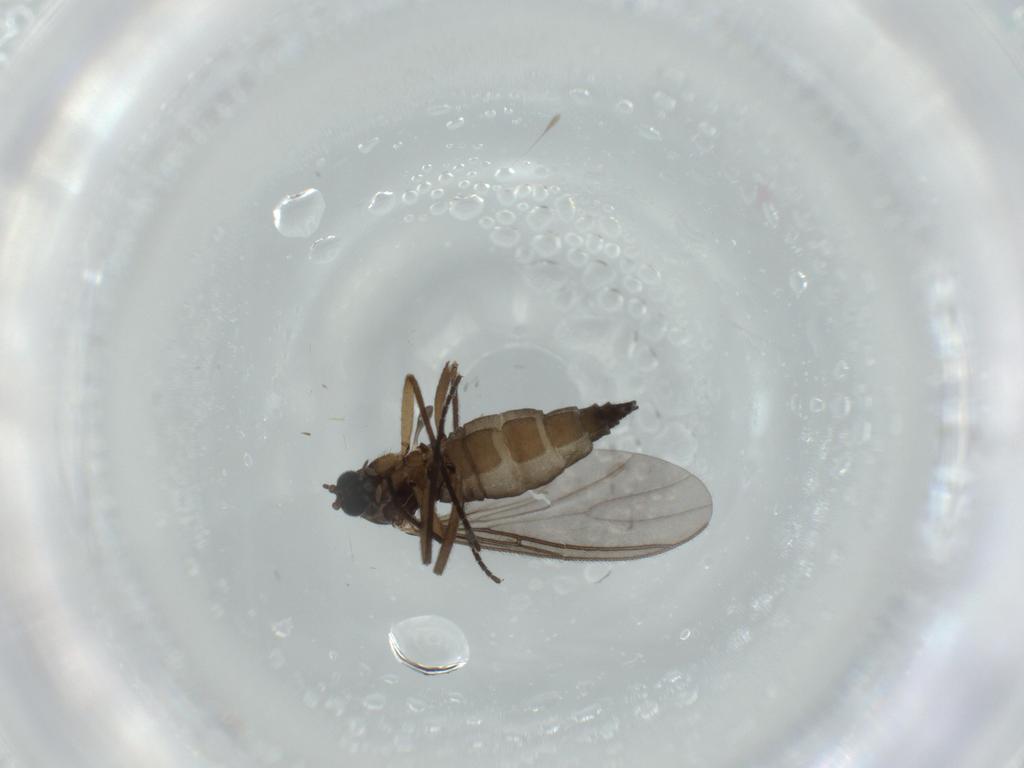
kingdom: Animalia
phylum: Arthropoda
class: Insecta
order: Diptera
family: Sciaridae
